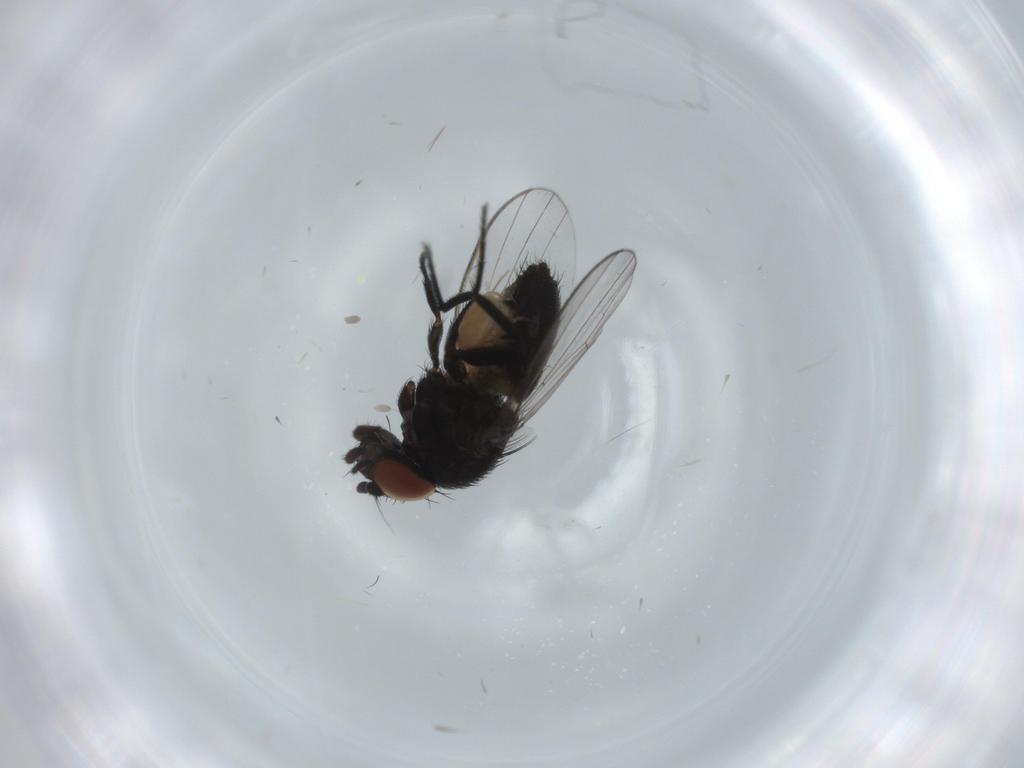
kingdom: Animalia
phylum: Arthropoda
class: Insecta
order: Diptera
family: Milichiidae
